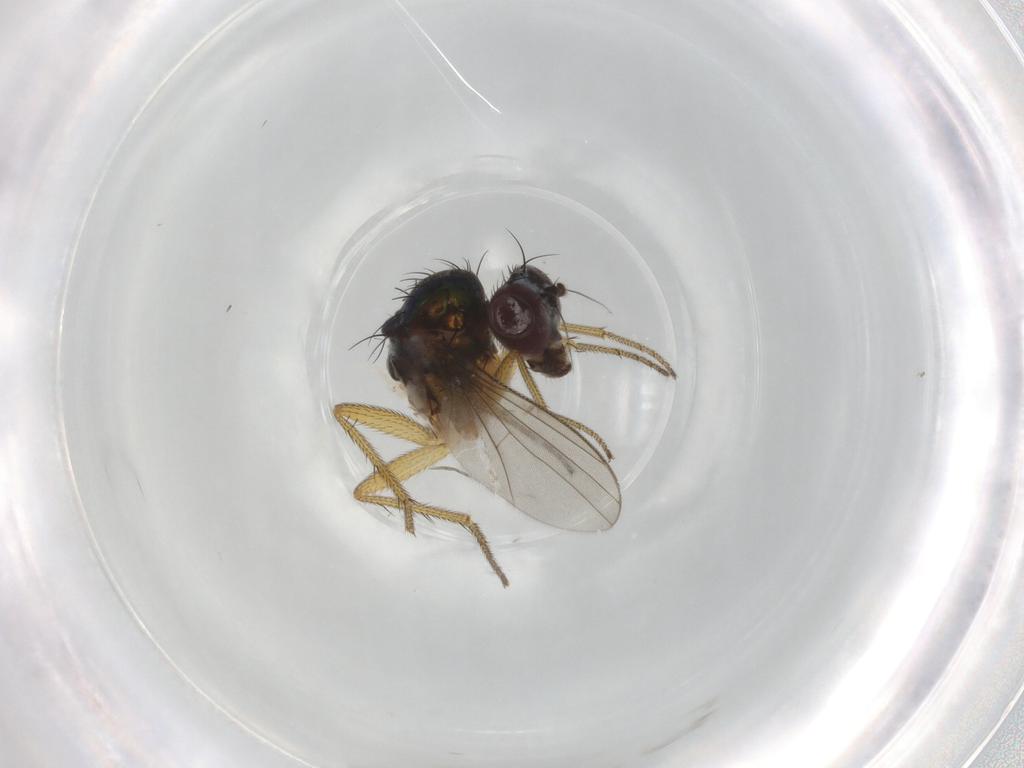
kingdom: Animalia
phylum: Arthropoda
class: Insecta
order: Diptera
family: Dolichopodidae
